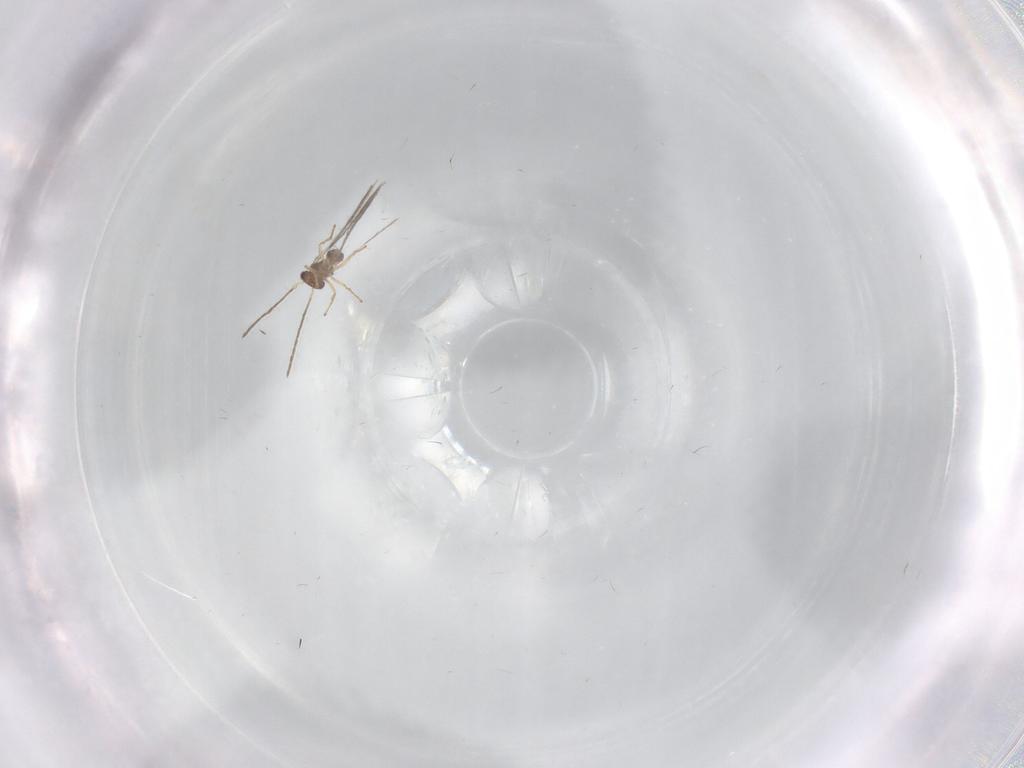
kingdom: Animalia
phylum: Arthropoda
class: Insecta
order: Hymenoptera
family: Mymaridae
